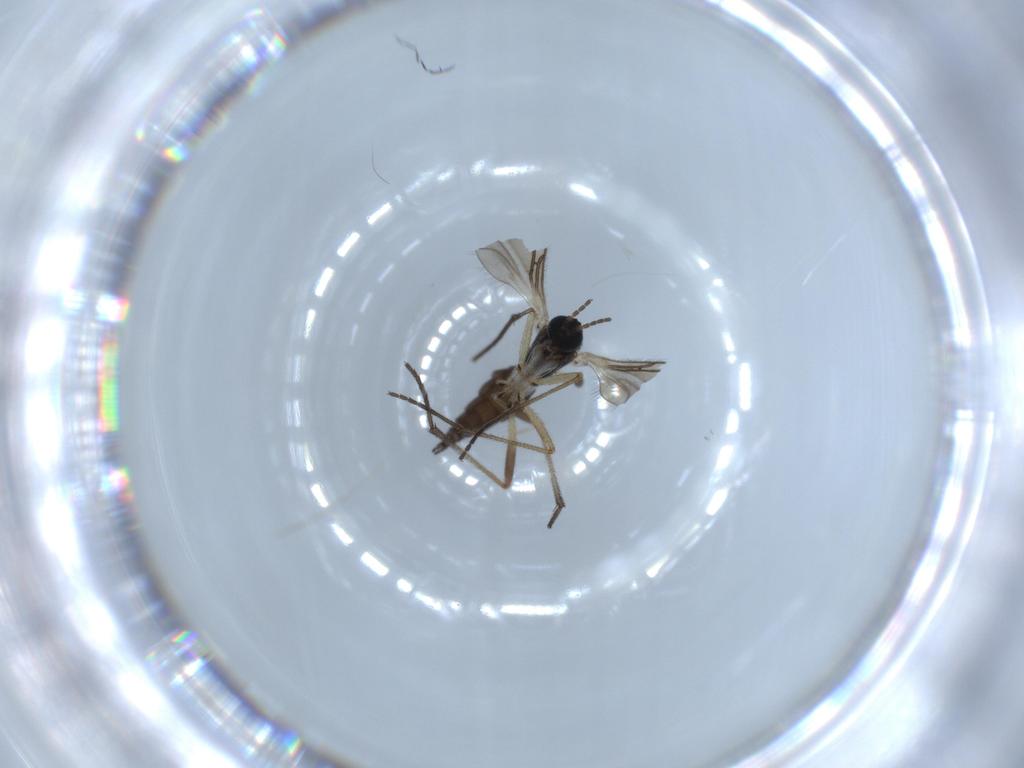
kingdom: Animalia
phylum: Arthropoda
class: Insecta
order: Diptera
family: Sciaridae
